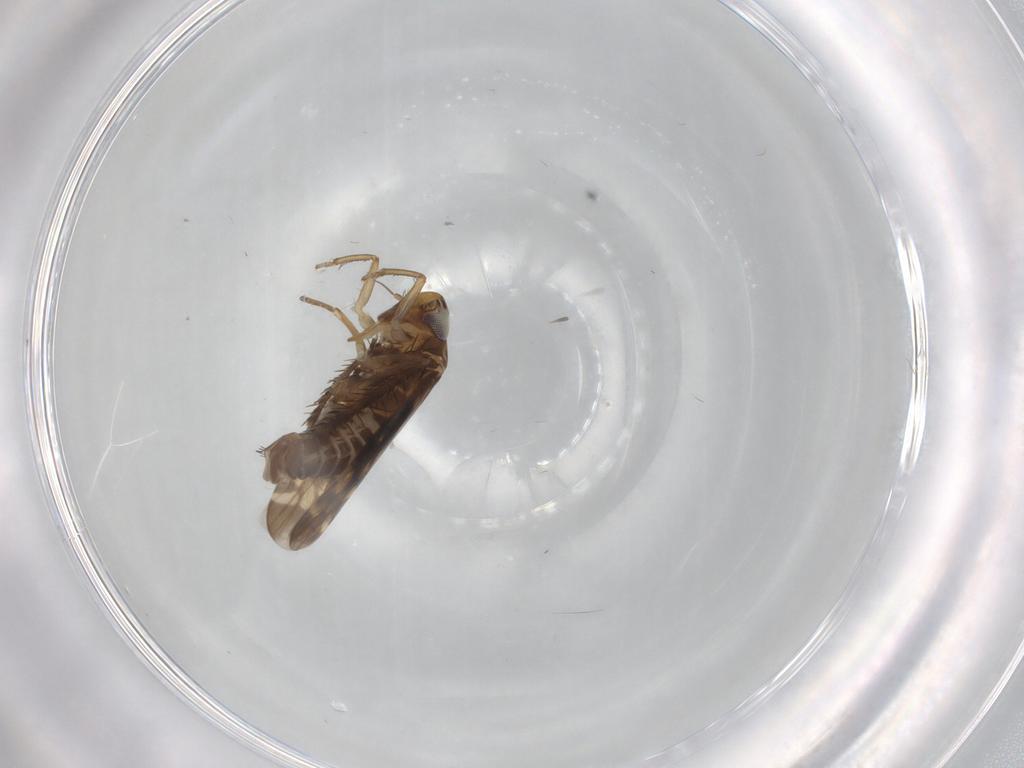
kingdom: Animalia
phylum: Arthropoda
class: Insecta
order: Hemiptera
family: Cicadellidae
